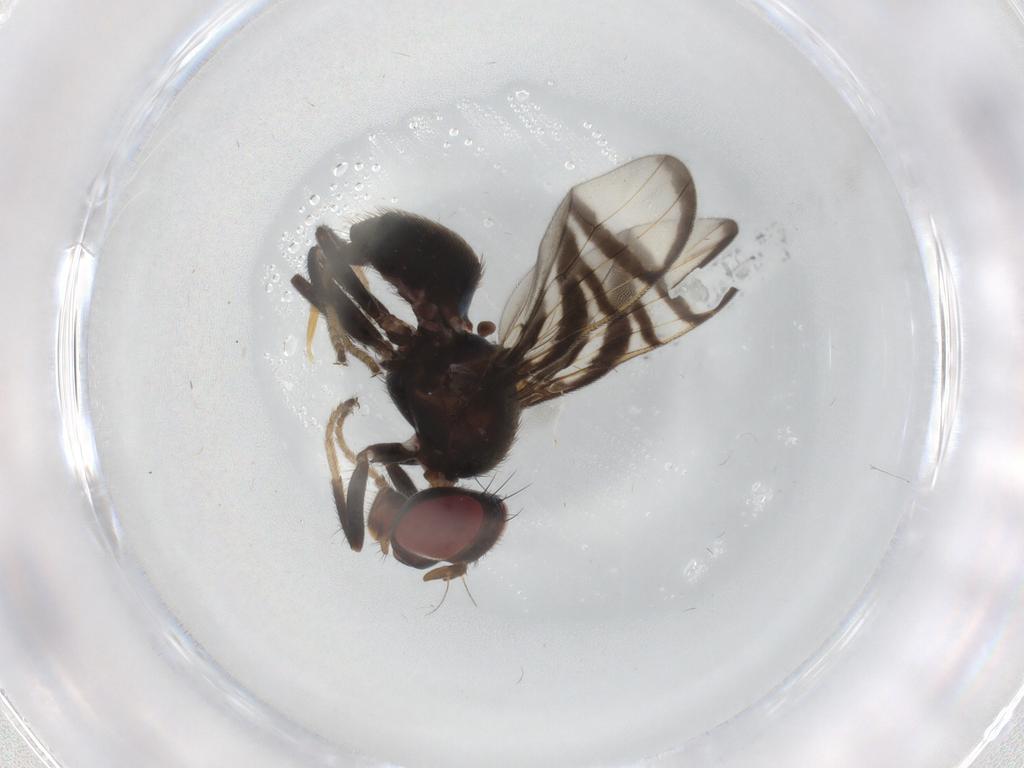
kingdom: Animalia
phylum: Arthropoda
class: Insecta
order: Diptera
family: Platystomatidae
